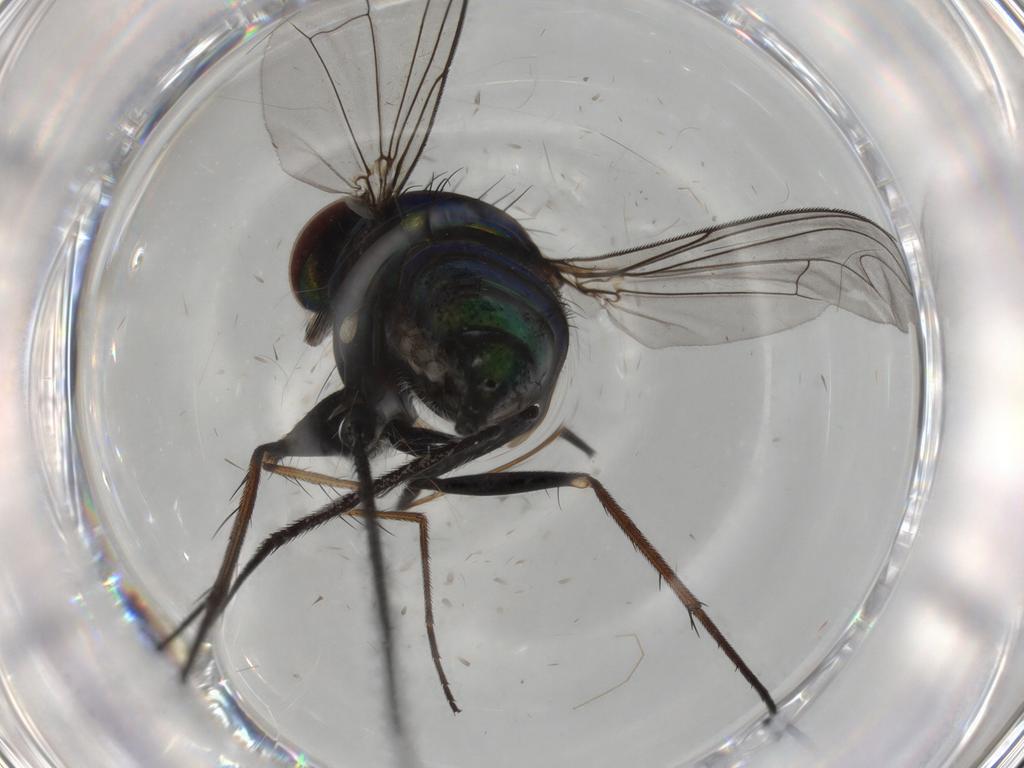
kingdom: Animalia
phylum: Arthropoda
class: Insecta
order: Diptera
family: Dolichopodidae
